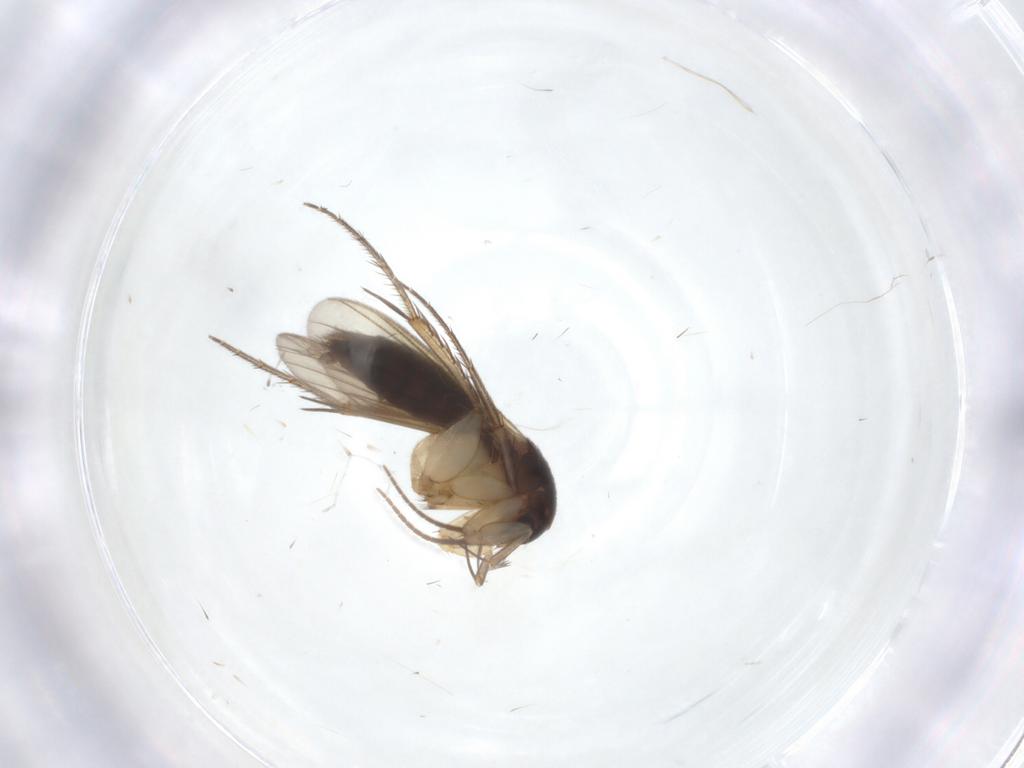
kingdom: Animalia
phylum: Arthropoda
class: Insecta
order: Diptera
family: Mycetophilidae
